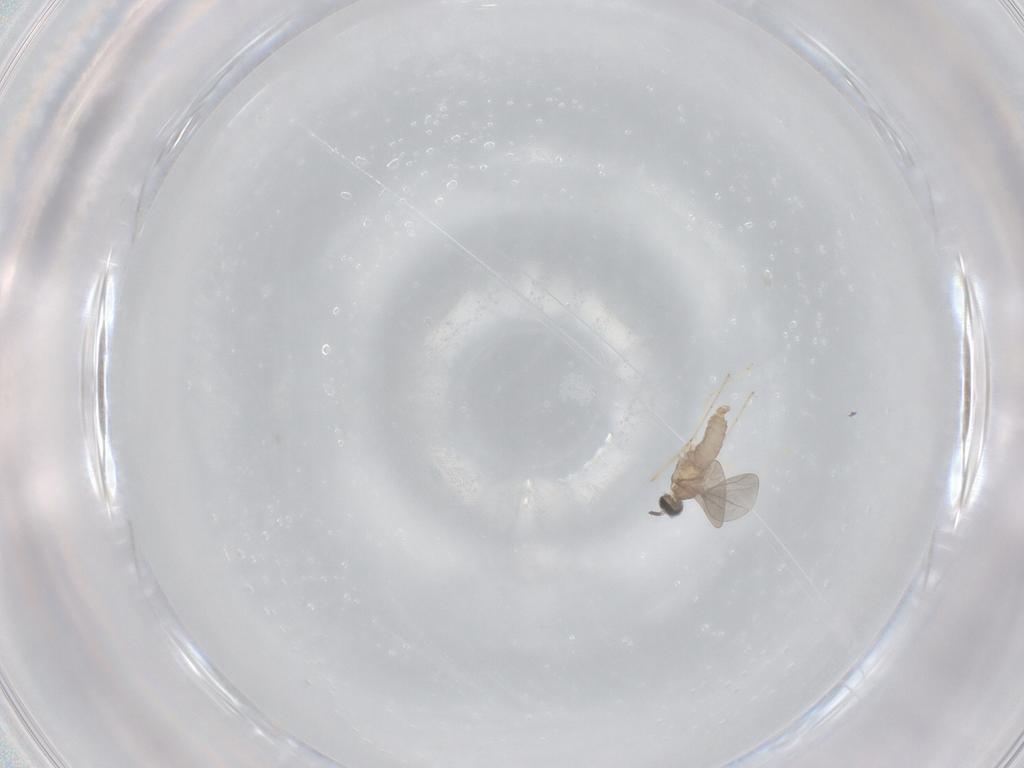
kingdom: Animalia
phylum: Arthropoda
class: Insecta
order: Diptera
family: Cecidomyiidae
